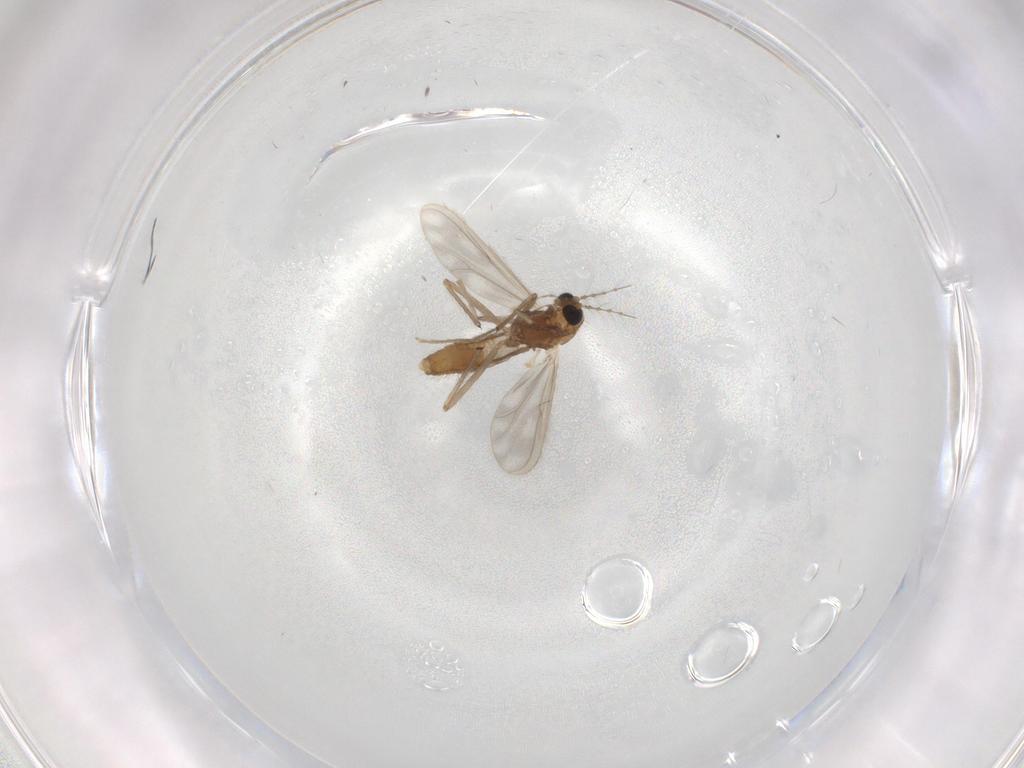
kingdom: Animalia
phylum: Arthropoda
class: Insecta
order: Diptera
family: Chironomidae
